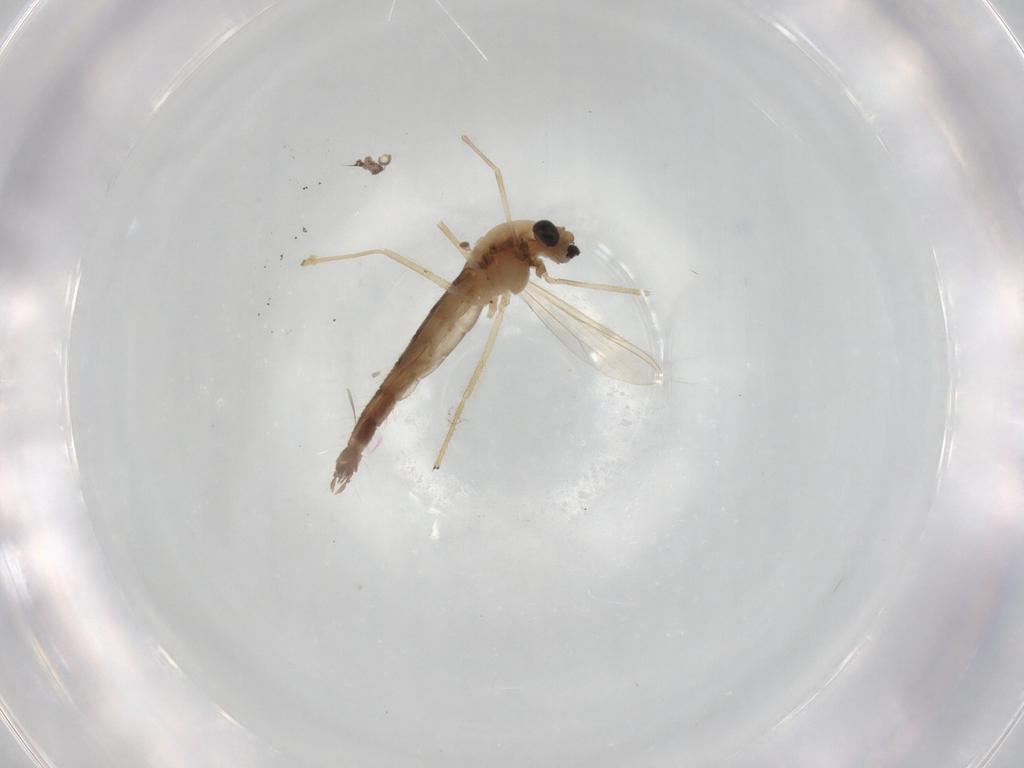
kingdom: Animalia
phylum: Arthropoda
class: Insecta
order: Diptera
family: Chironomidae
